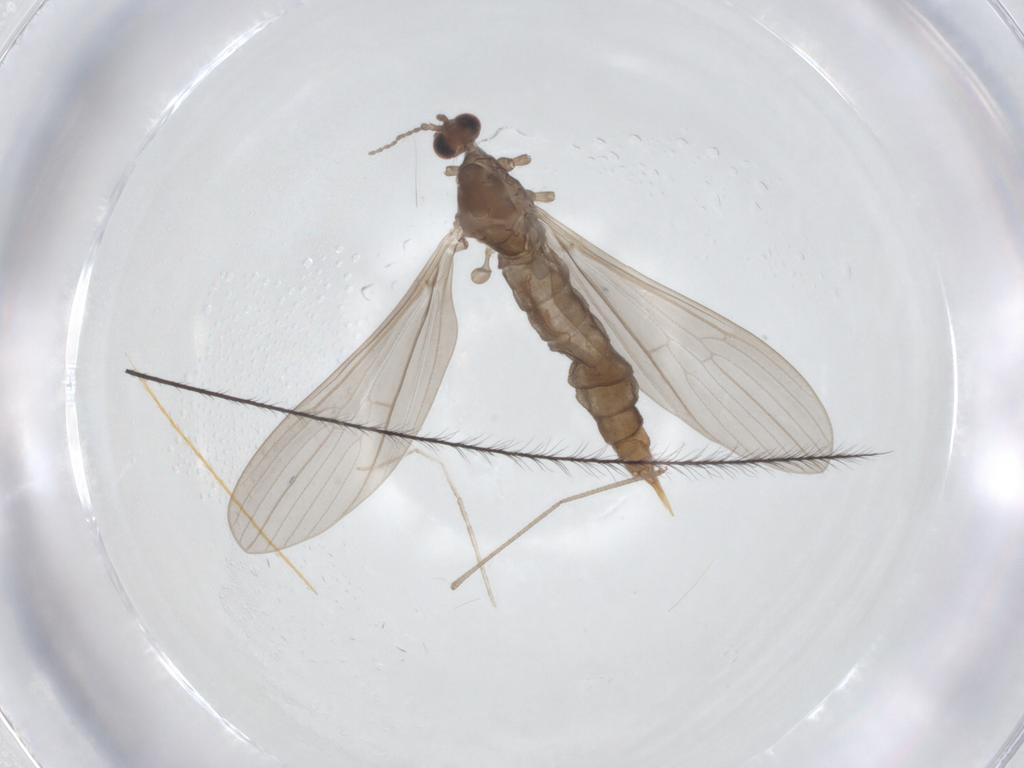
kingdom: Animalia
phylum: Arthropoda
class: Insecta
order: Diptera
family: Limoniidae
